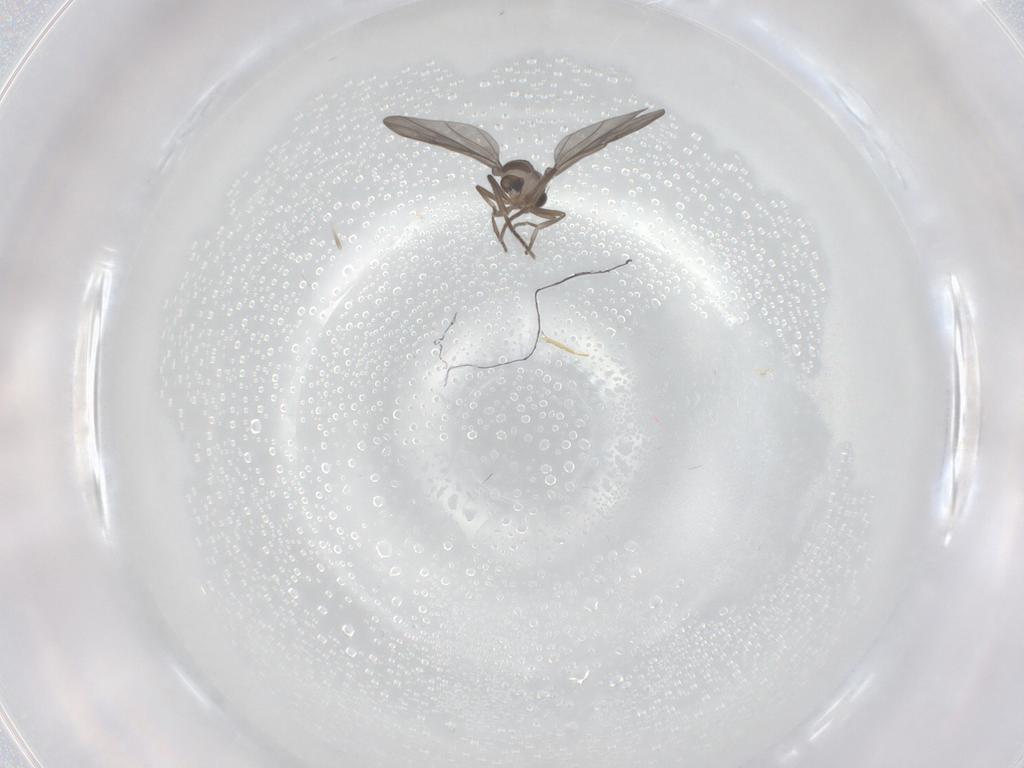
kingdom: Animalia
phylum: Arthropoda
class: Insecta
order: Diptera
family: Phoridae
